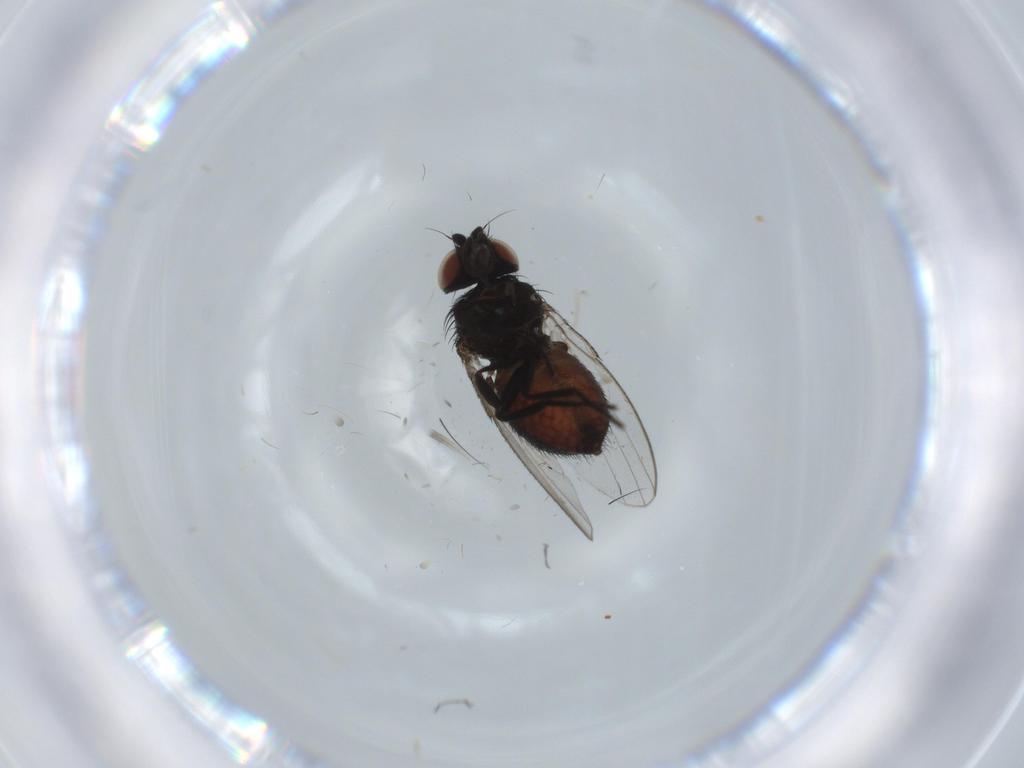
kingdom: Animalia
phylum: Arthropoda
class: Insecta
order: Diptera
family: Milichiidae
